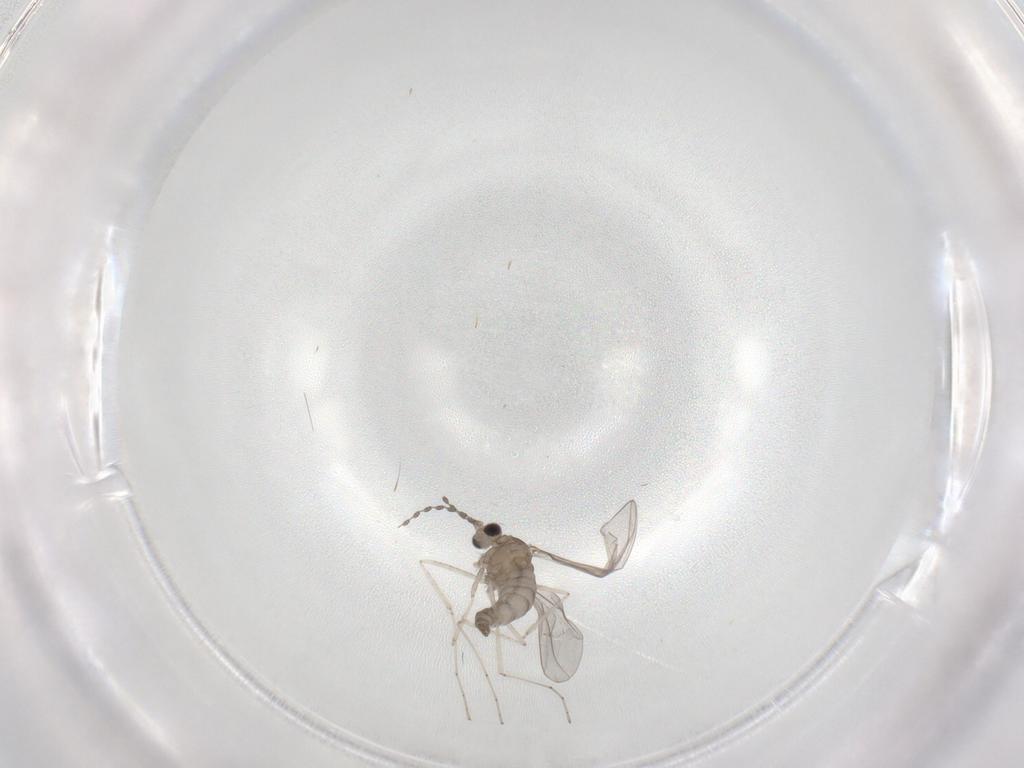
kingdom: Animalia
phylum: Arthropoda
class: Insecta
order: Diptera
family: Cecidomyiidae
